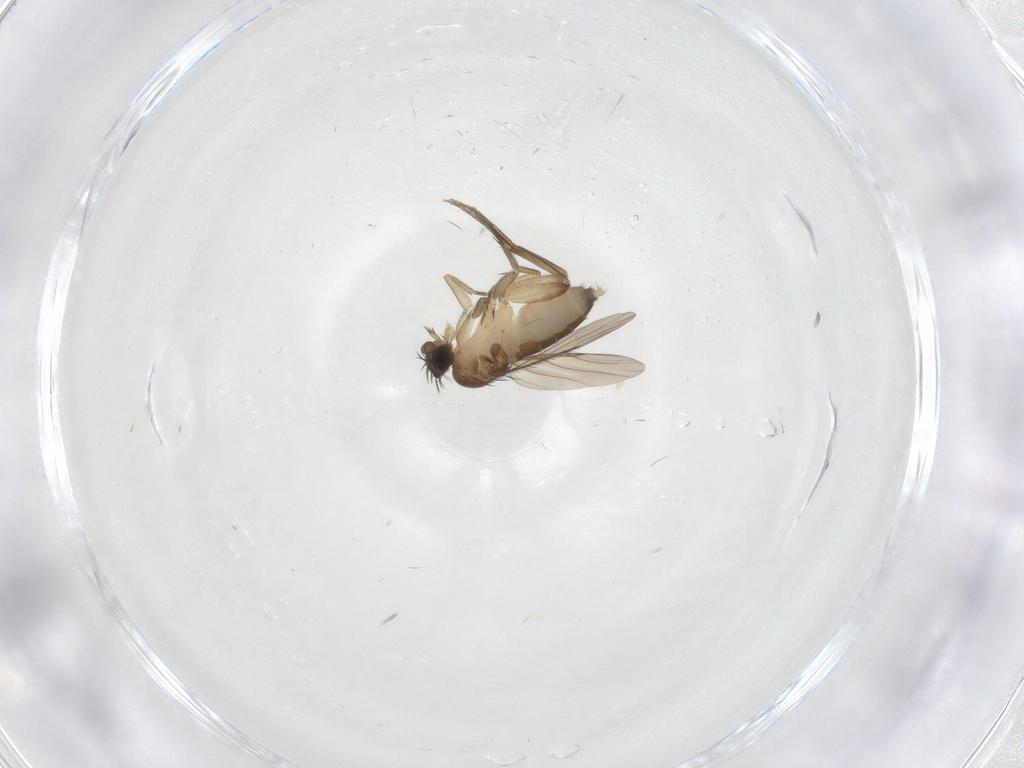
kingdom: Animalia
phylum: Arthropoda
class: Insecta
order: Diptera
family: Phoridae
